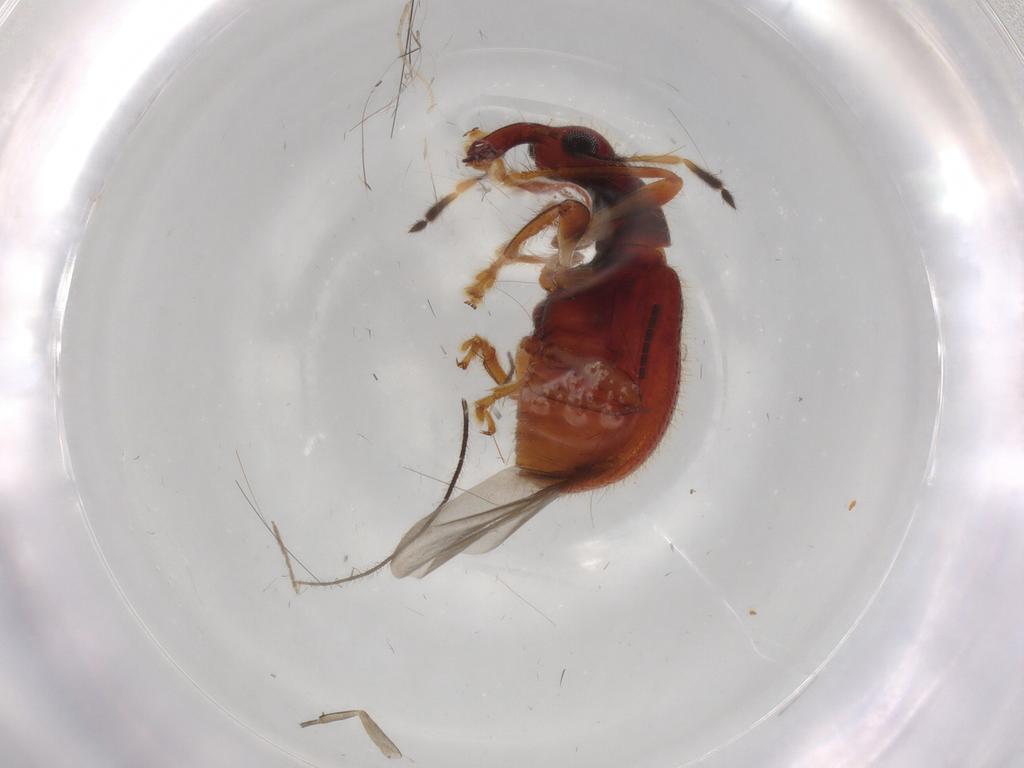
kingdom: Animalia
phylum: Arthropoda
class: Insecta
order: Coleoptera
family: Attelabidae
